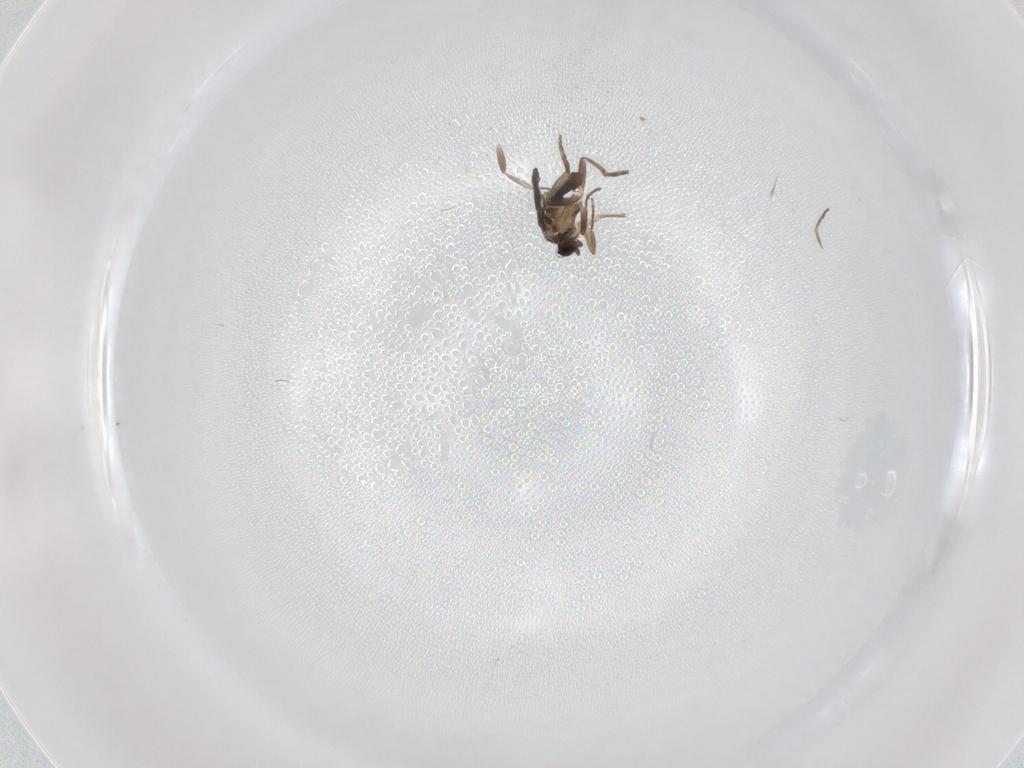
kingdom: Animalia
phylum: Arthropoda
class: Insecta
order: Diptera
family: Phoridae
